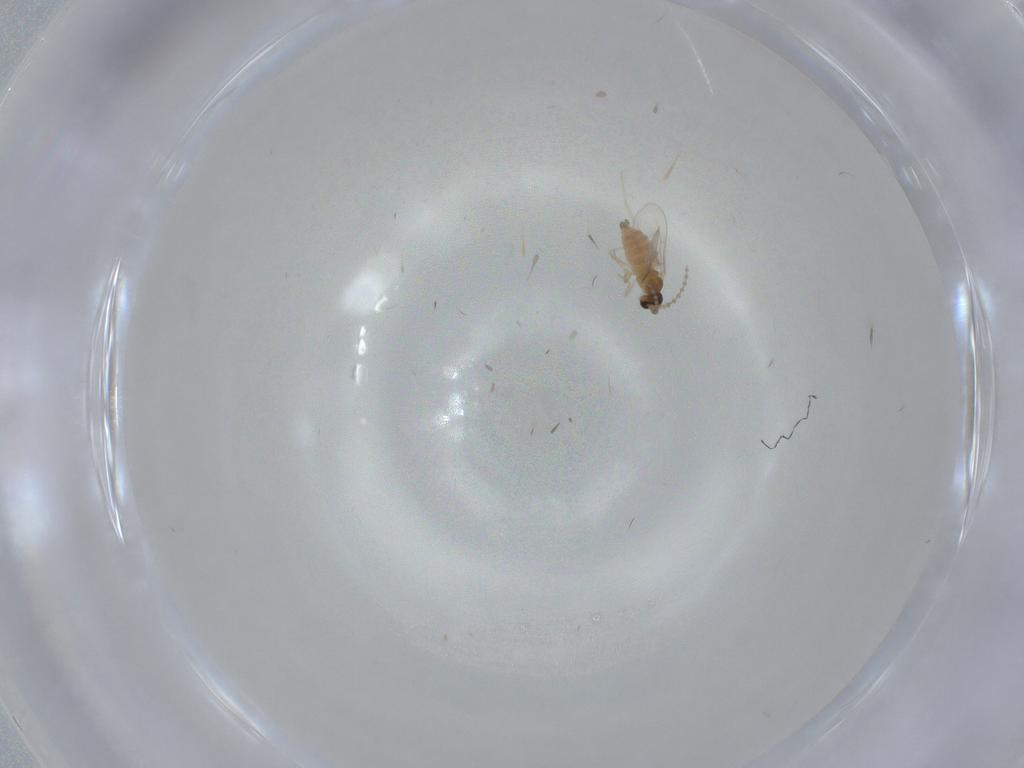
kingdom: Animalia
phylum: Arthropoda
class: Insecta
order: Diptera
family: Cecidomyiidae
